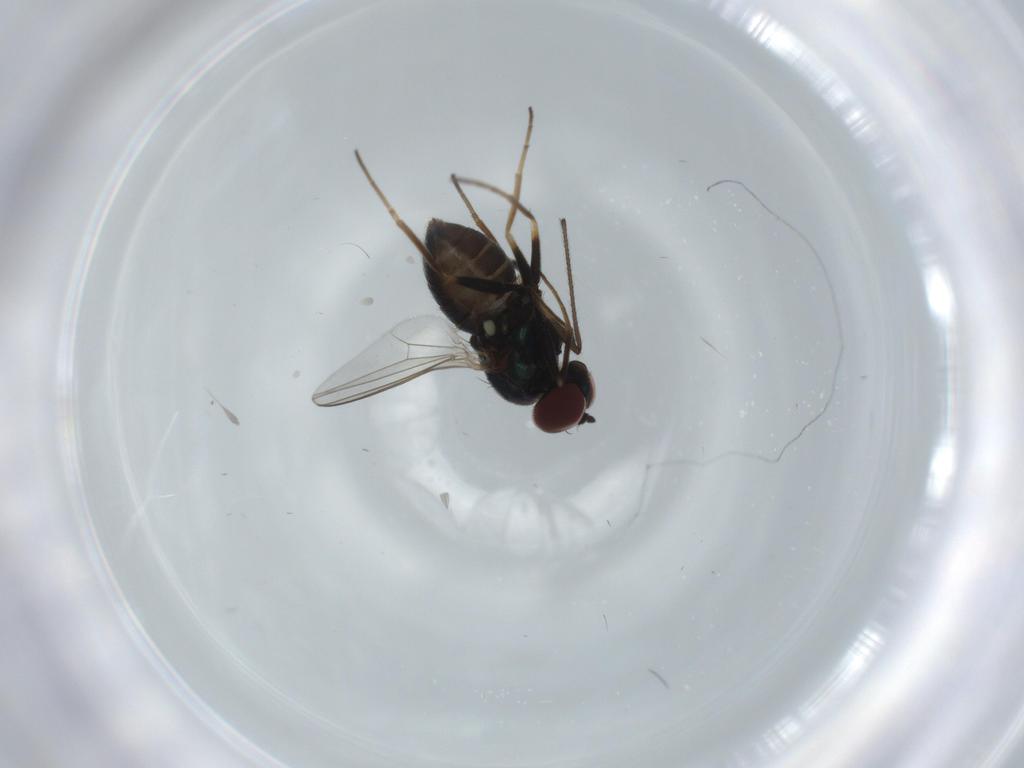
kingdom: Animalia
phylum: Arthropoda
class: Insecta
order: Diptera
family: Dolichopodidae
